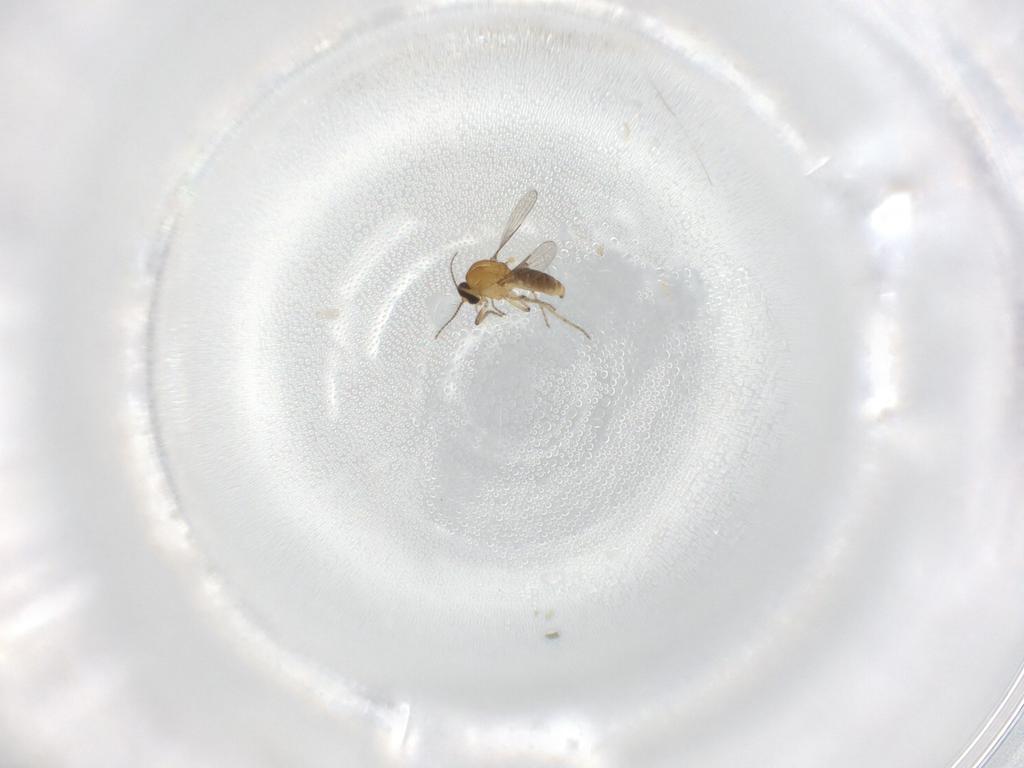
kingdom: Animalia
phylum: Arthropoda
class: Insecta
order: Diptera
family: Ceratopogonidae
